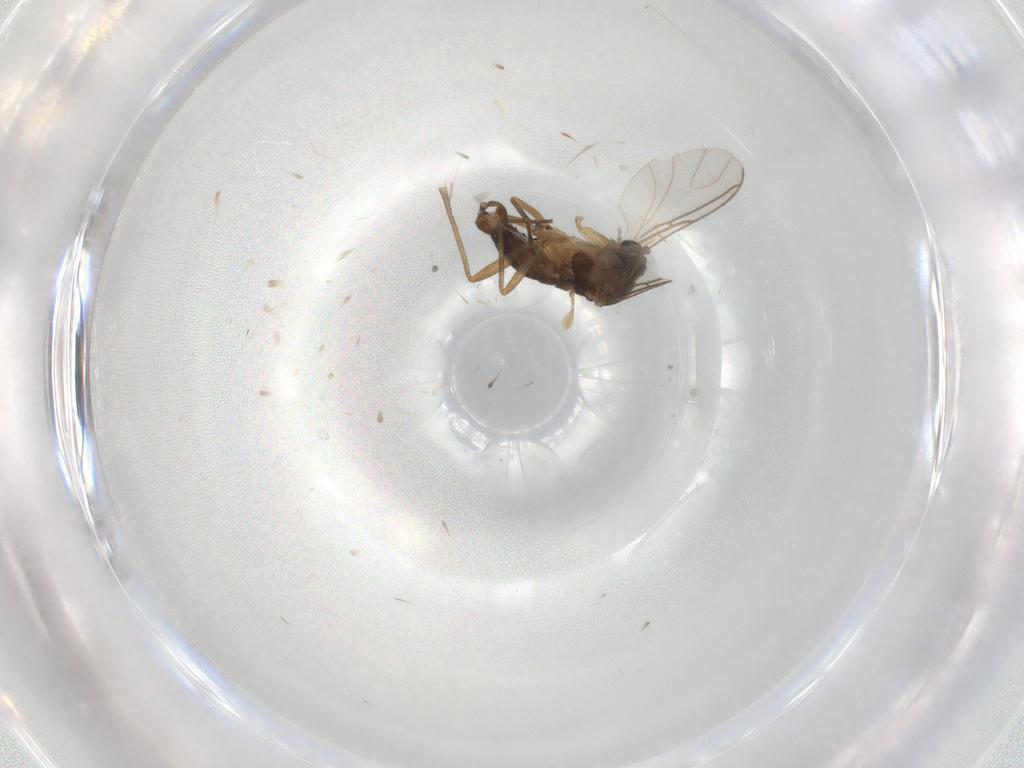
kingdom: Animalia
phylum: Arthropoda
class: Insecta
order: Diptera
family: Sciaridae
